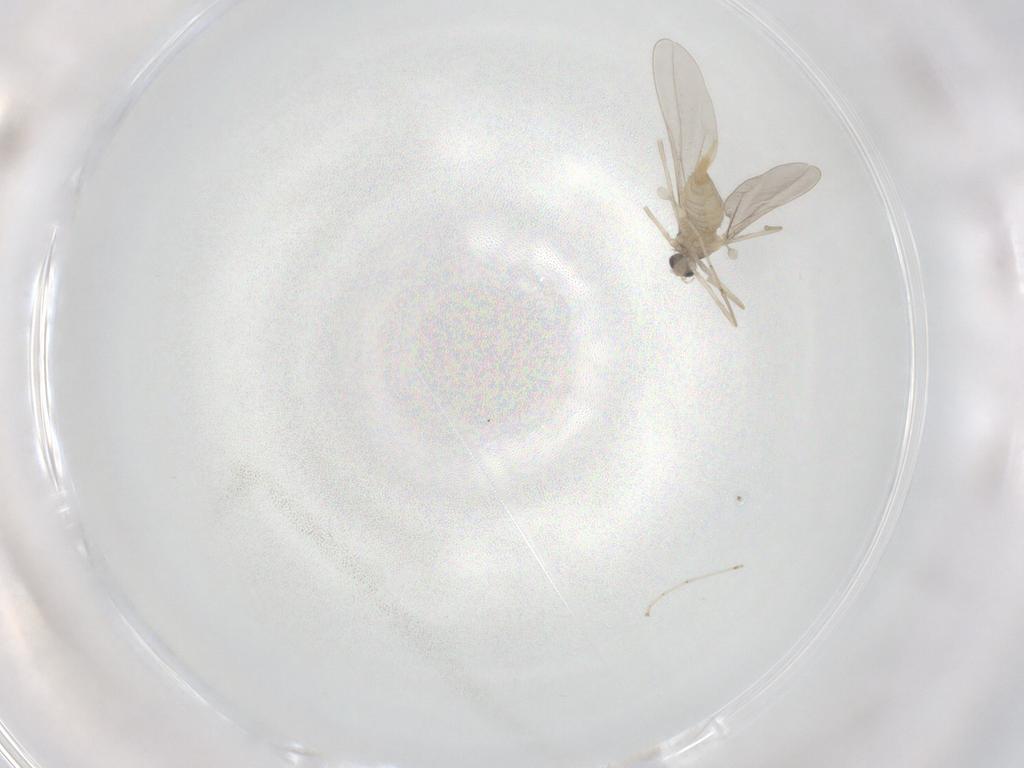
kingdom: Animalia
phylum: Arthropoda
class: Insecta
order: Diptera
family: Cecidomyiidae
